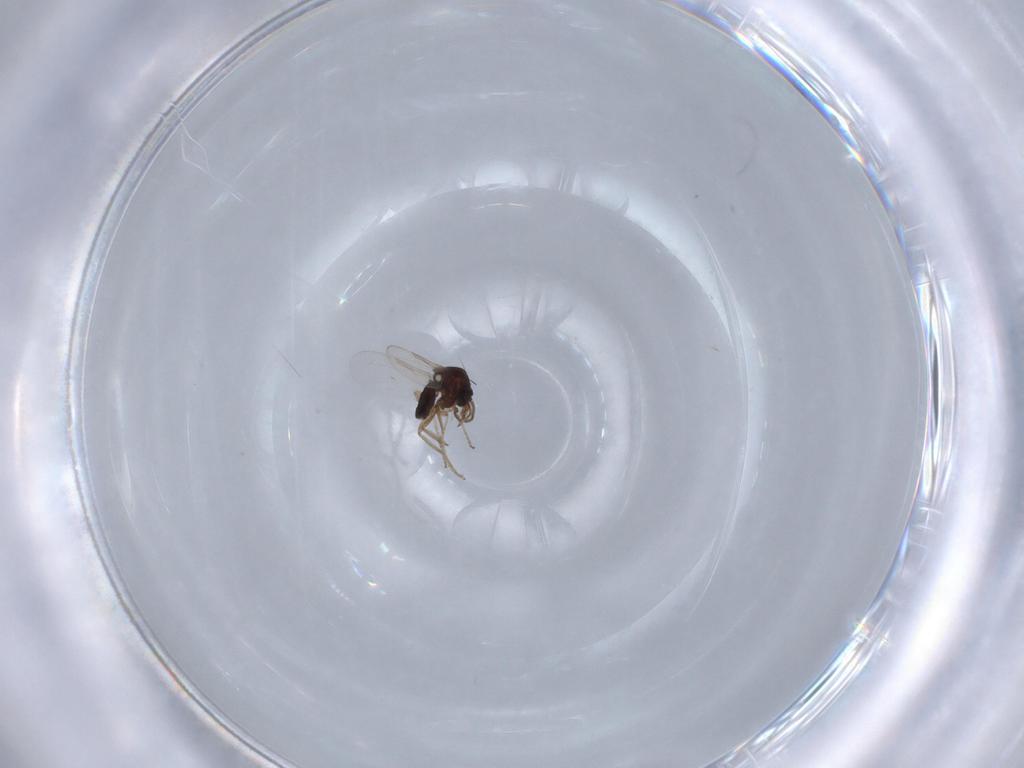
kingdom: Animalia
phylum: Arthropoda
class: Insecta
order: Diptera
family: Ceratopogonidae
